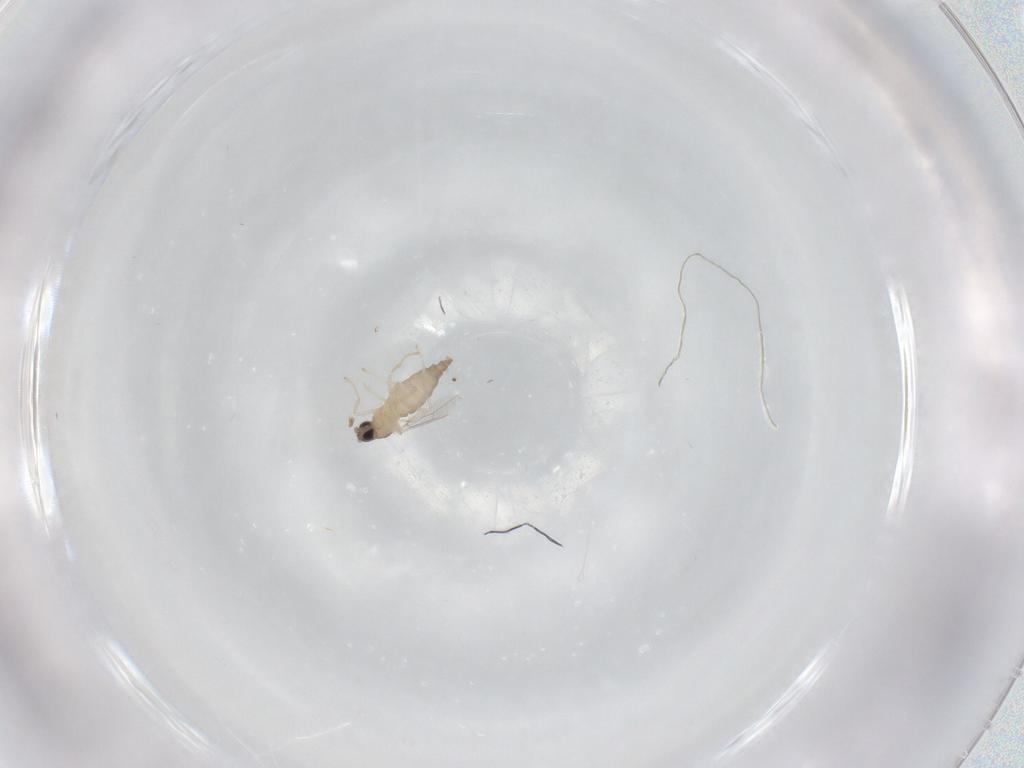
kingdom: Animalia
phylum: Arthropoda
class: Insecta
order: Diptera
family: Cecidomyiidae
